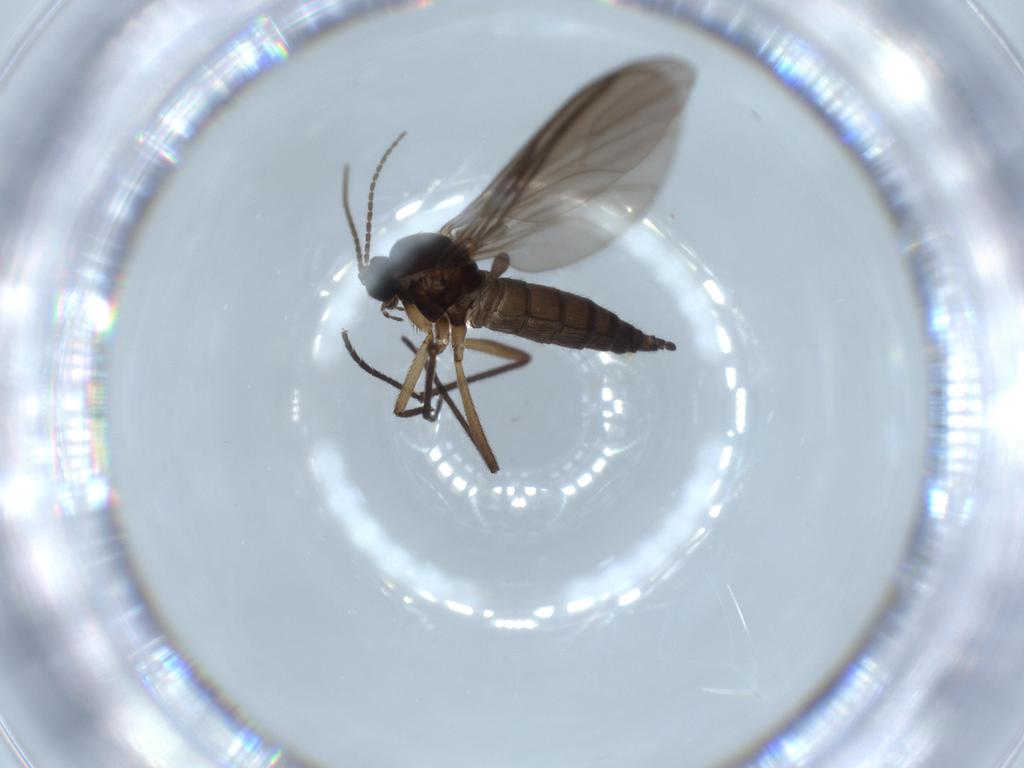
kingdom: Animalia
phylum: Arthropoda
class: Insecta
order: Diptera
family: Sciaridae
